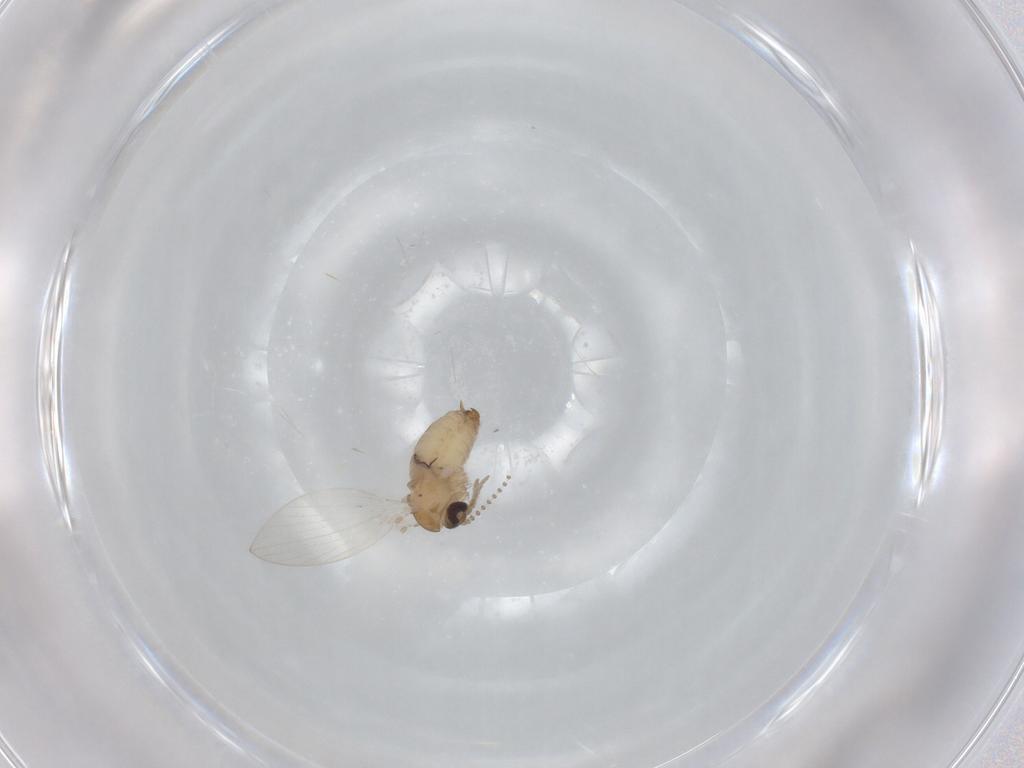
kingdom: Animalia
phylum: Arthropoda
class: Insecta
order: Diptera
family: Psychodidae
